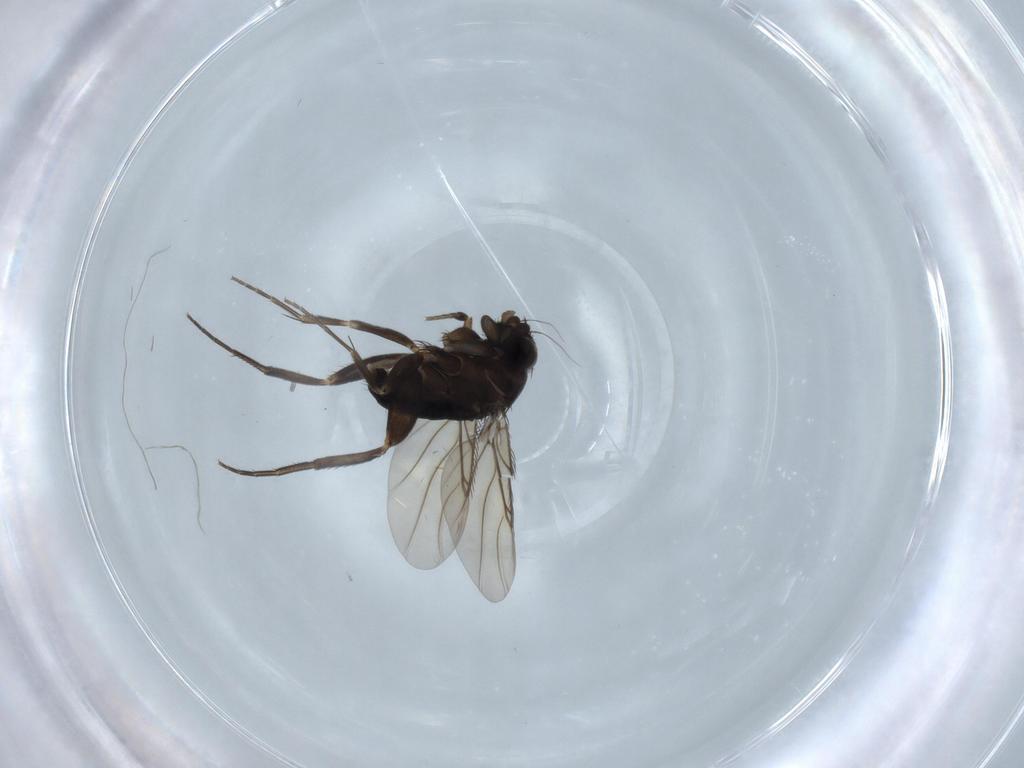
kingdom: Animalia
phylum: Arthropoda
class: Insecta
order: Diptera
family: Phoridae
